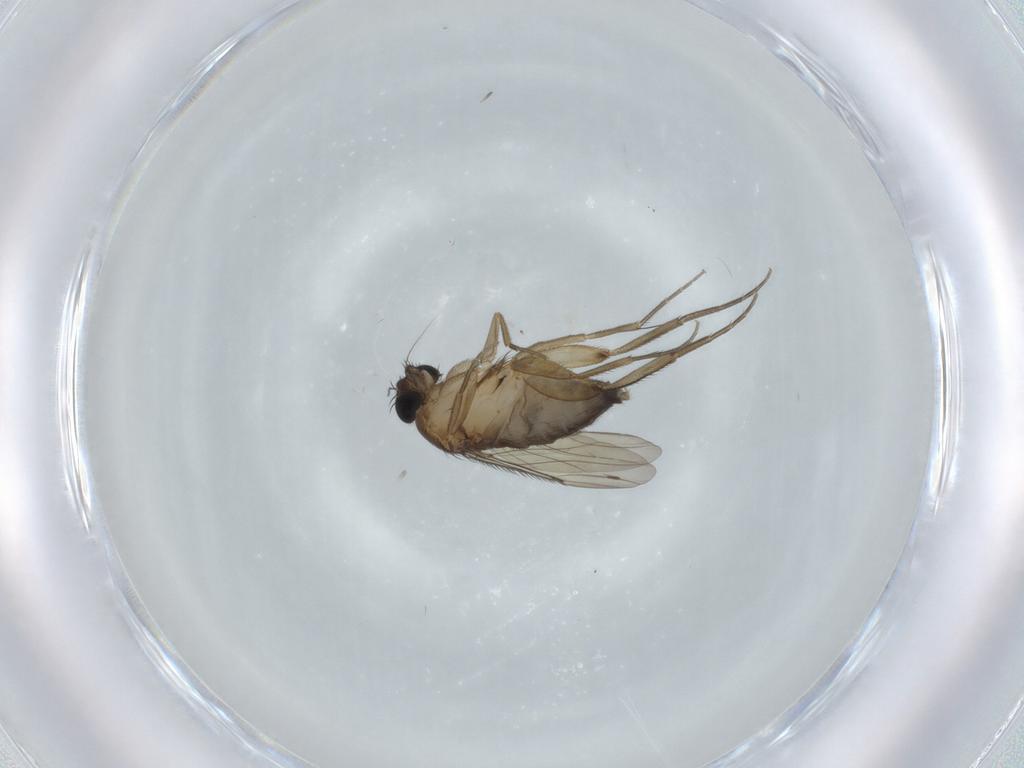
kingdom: Animalia
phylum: Arthropoda
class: Insecta
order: Diptera
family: Phoridae
